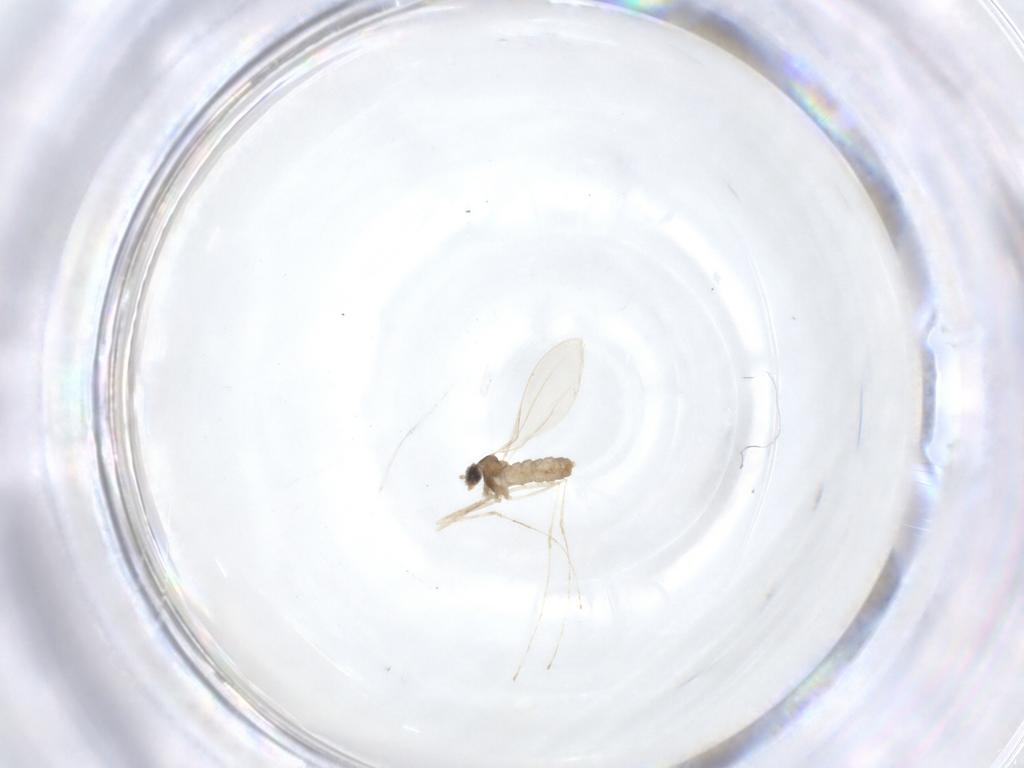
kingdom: Animalia
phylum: Arthropoda
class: Insecta
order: Diptera
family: Cecidomyiidae
